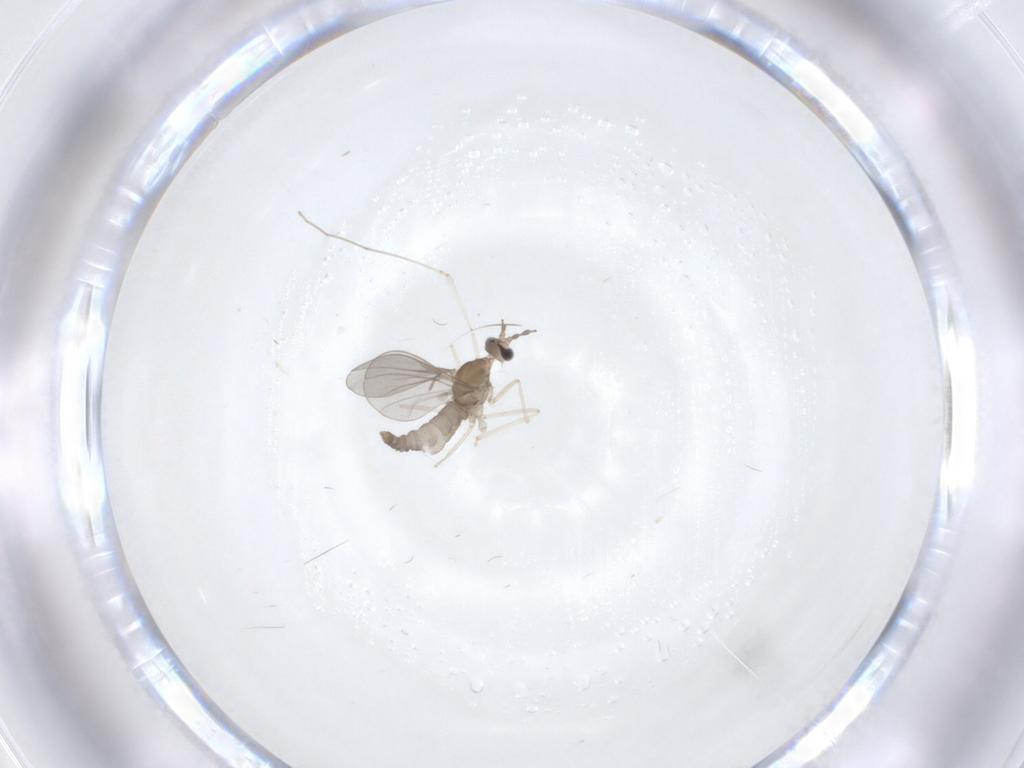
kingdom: Animalia
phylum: Arthropoda
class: Insecta
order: Diptera
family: Cecidomyiidae
